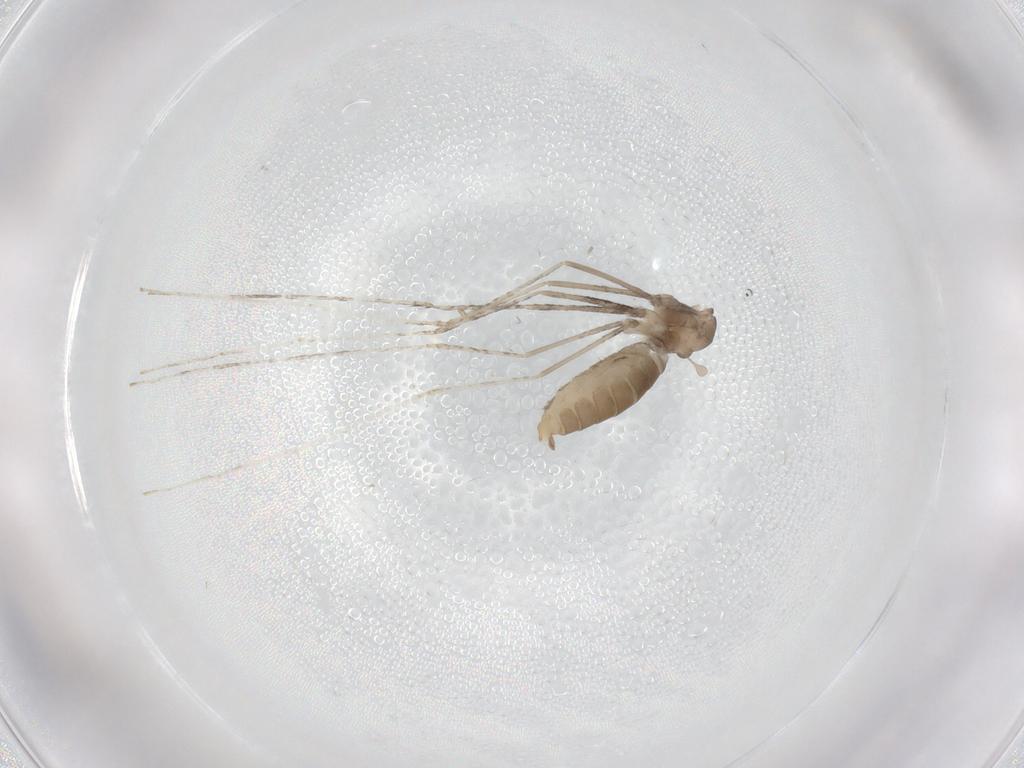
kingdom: Animalia
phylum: Arthropoda
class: Insecta
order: Diptera
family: Cecidomyiidae
